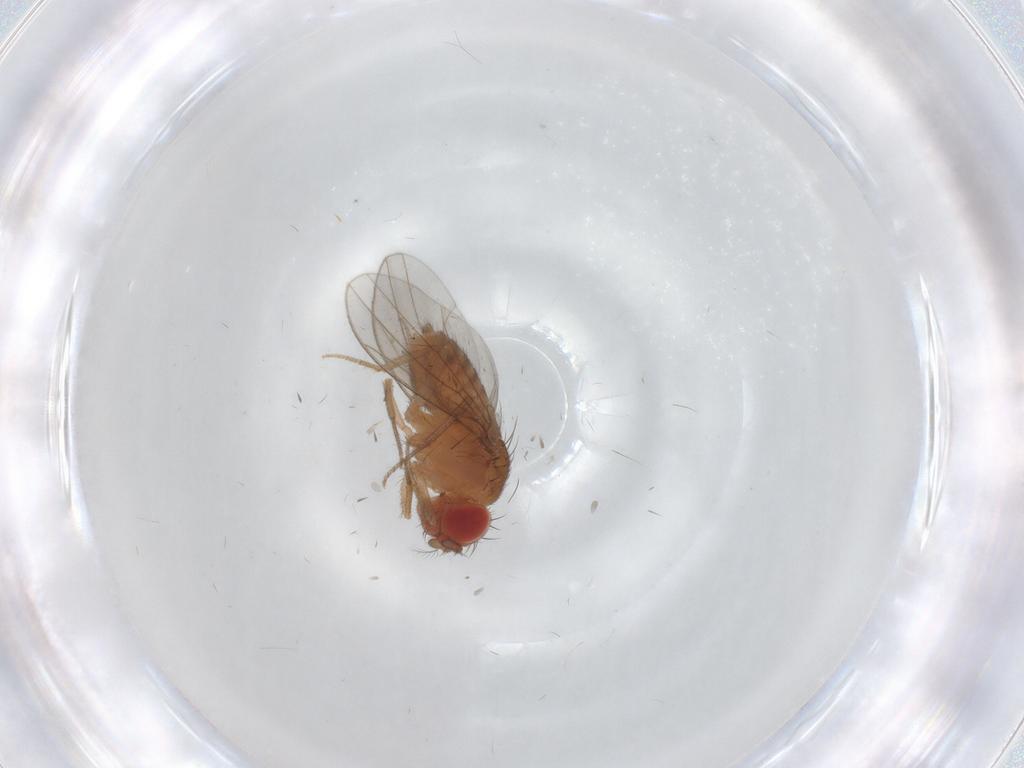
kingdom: Animalia
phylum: Arthropoda
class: Insecta
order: Diptera
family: Drosophilidae
